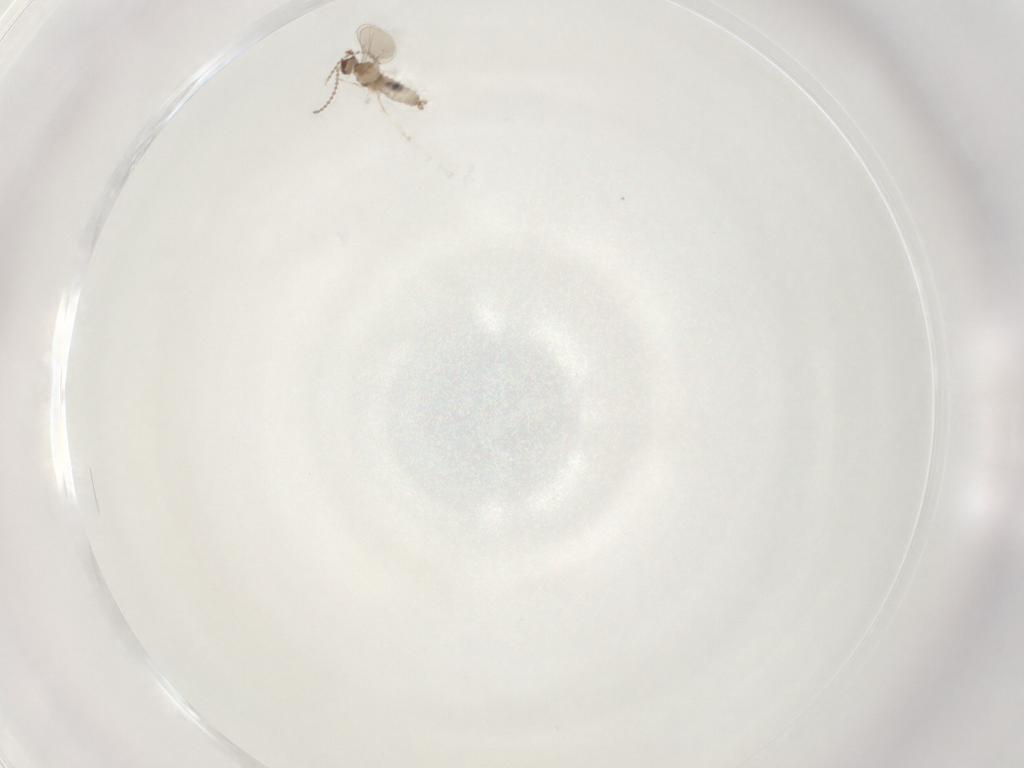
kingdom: Animalia
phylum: Arthropoda
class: Insecta
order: Diptera
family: Cecidomyiidae
